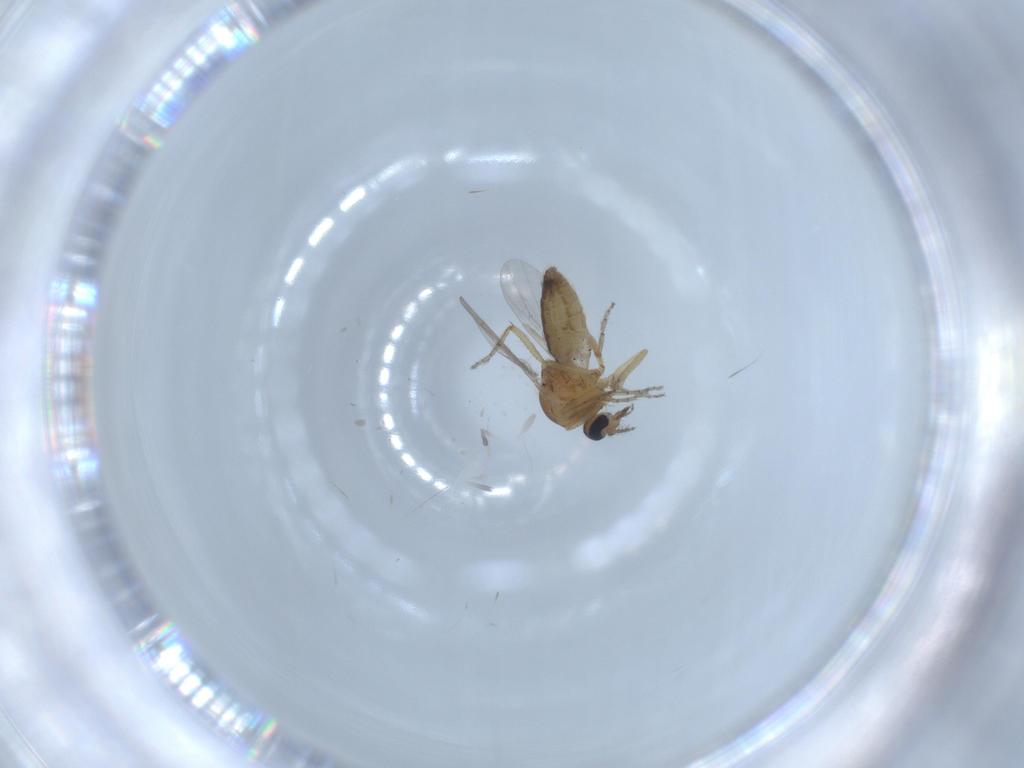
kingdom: Animalia
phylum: Arthropoda
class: Insecta
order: Diptera
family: Ceratopogonidae
